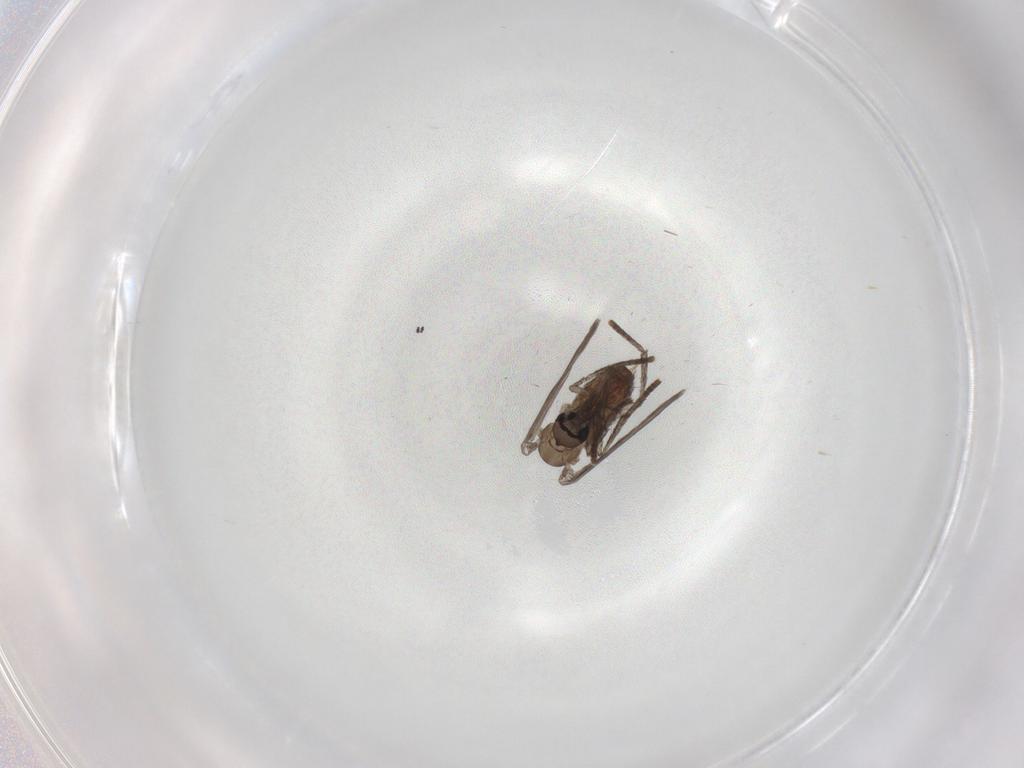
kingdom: Animalia
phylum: Arthropoda
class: Insecta
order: Diptera
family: Psychodidae
